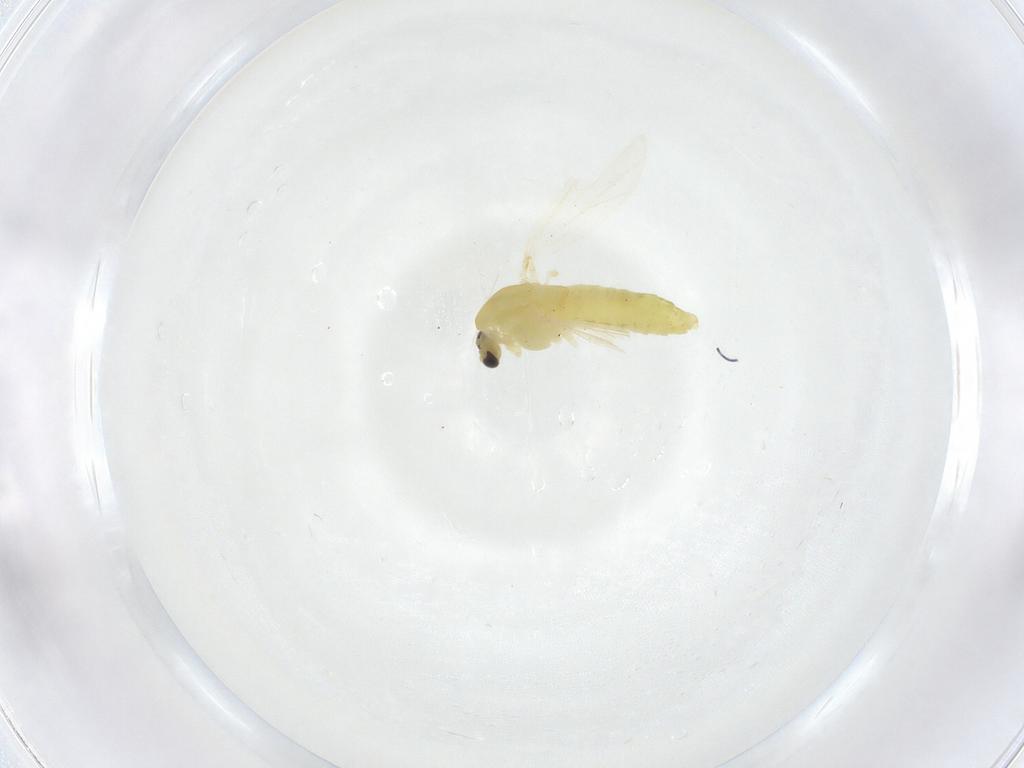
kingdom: Animalia
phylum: Arthropoda
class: Insecta
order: Diptera
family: Chironomidae
